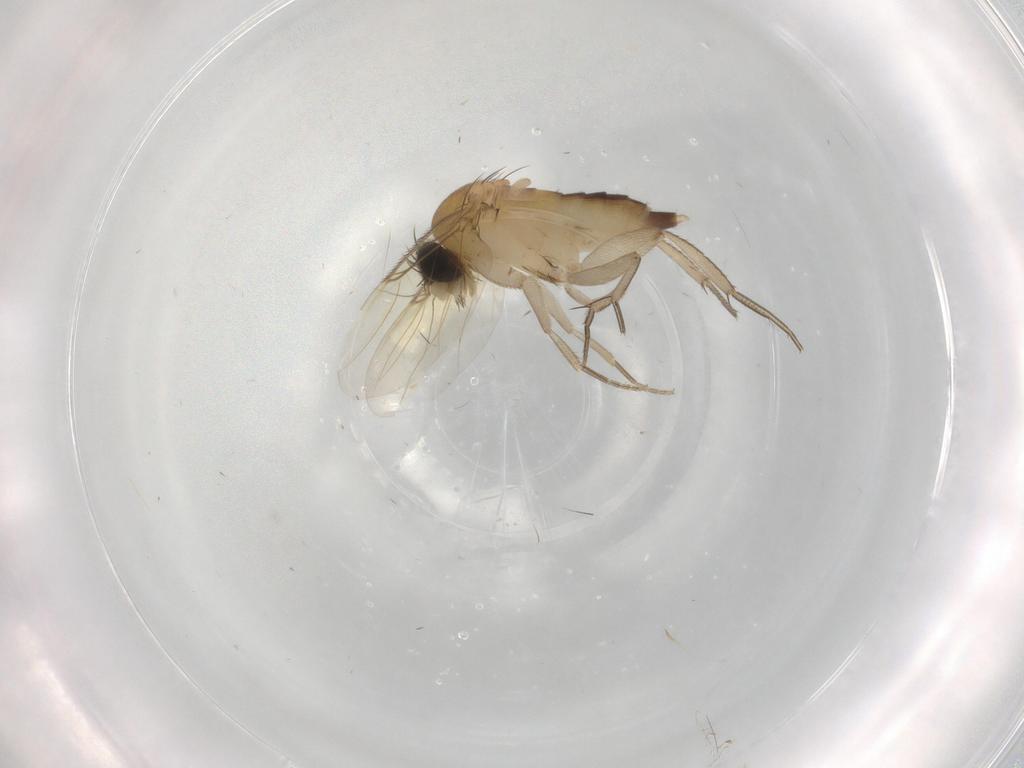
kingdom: Animalia
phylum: Arthropoda
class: Insecta
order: Diptera
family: Phoridae
